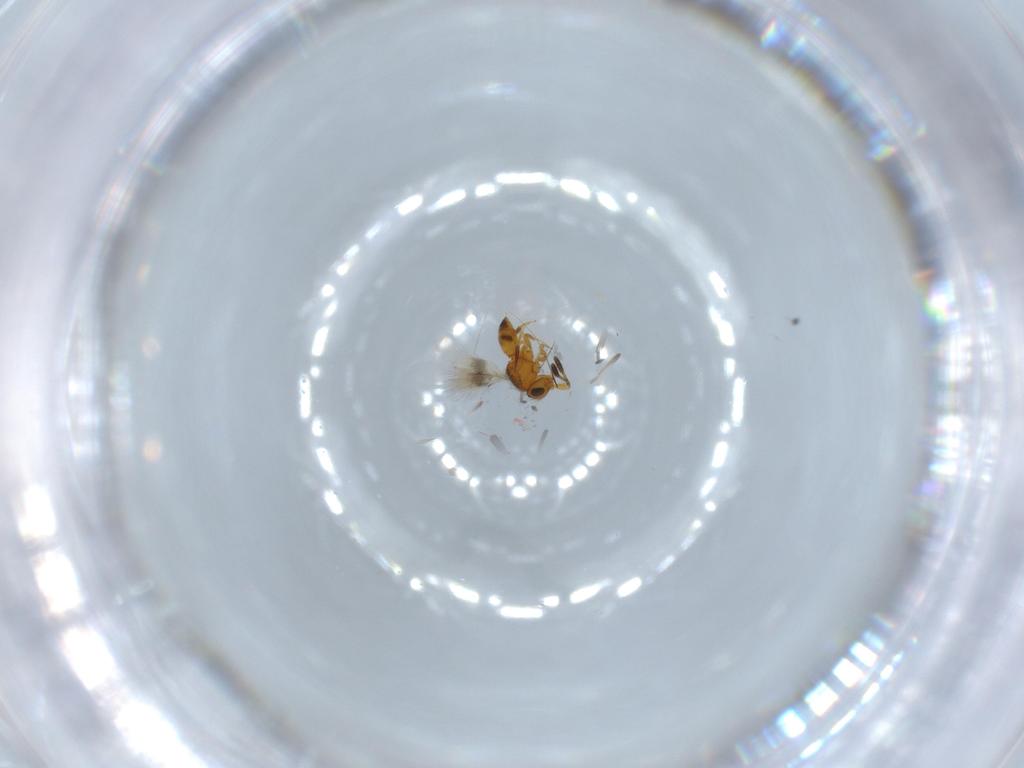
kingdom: Animalia
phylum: Arthropoda
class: Insecta
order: Hymenoptera
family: Scelionidae
